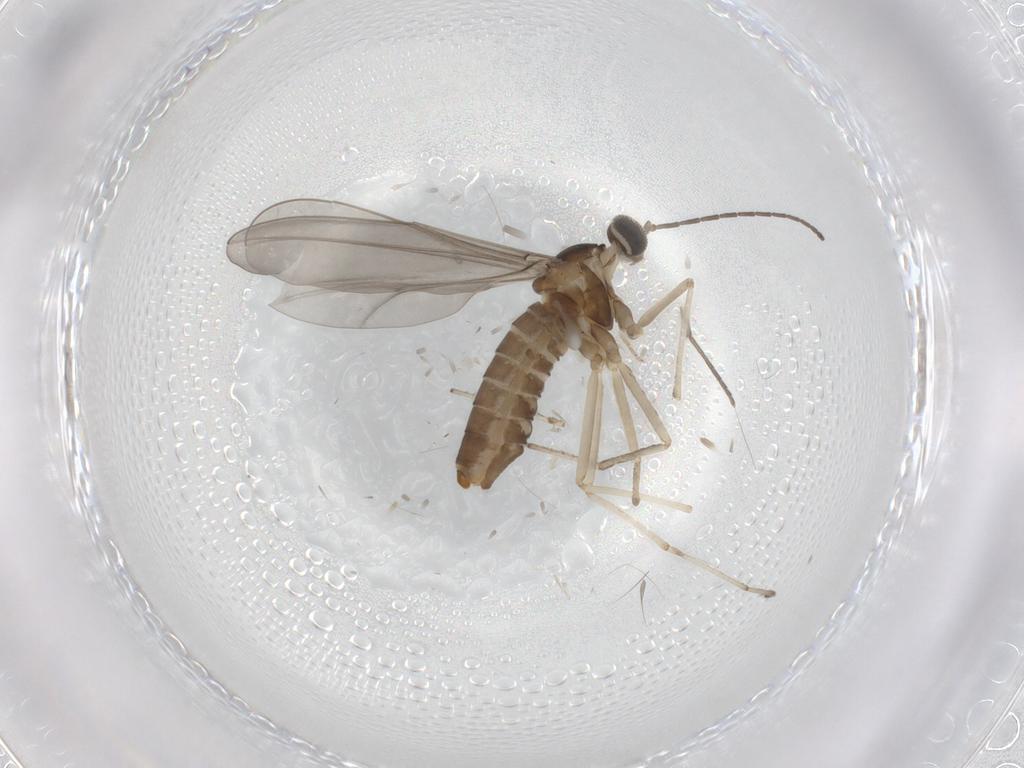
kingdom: Animalia
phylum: Arthropoda
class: Insecta
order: Diptera
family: Cecidomyiidae
